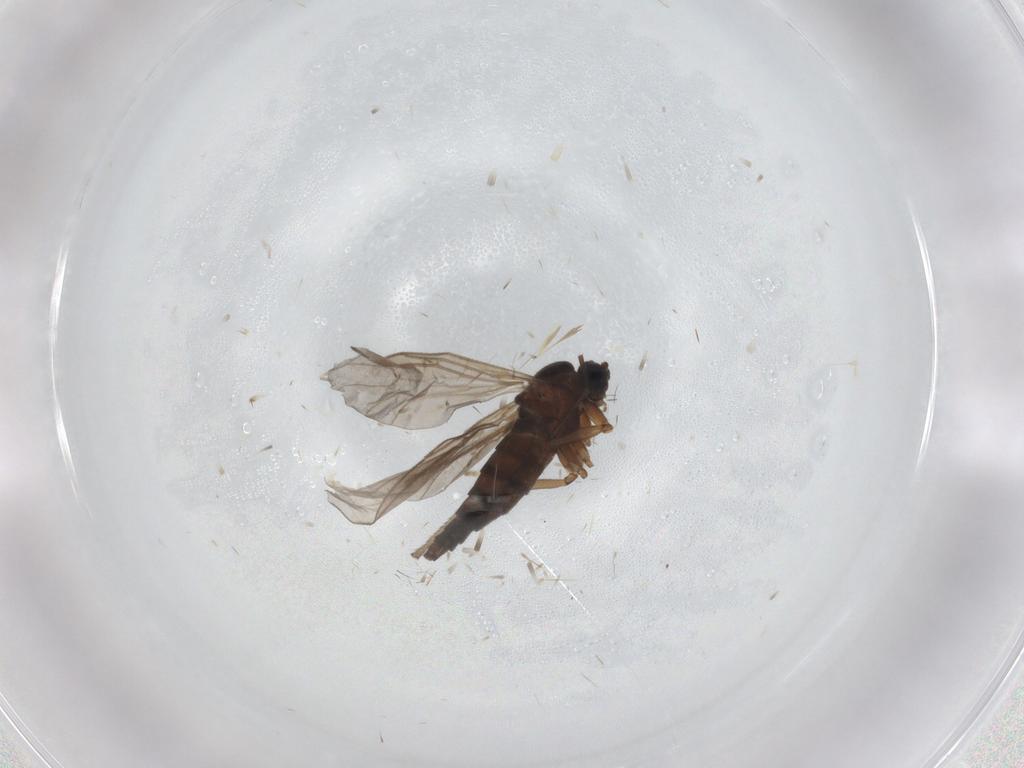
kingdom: Animalia
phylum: Arthropoda
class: Insecta
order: Diptera
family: Sciaridae
